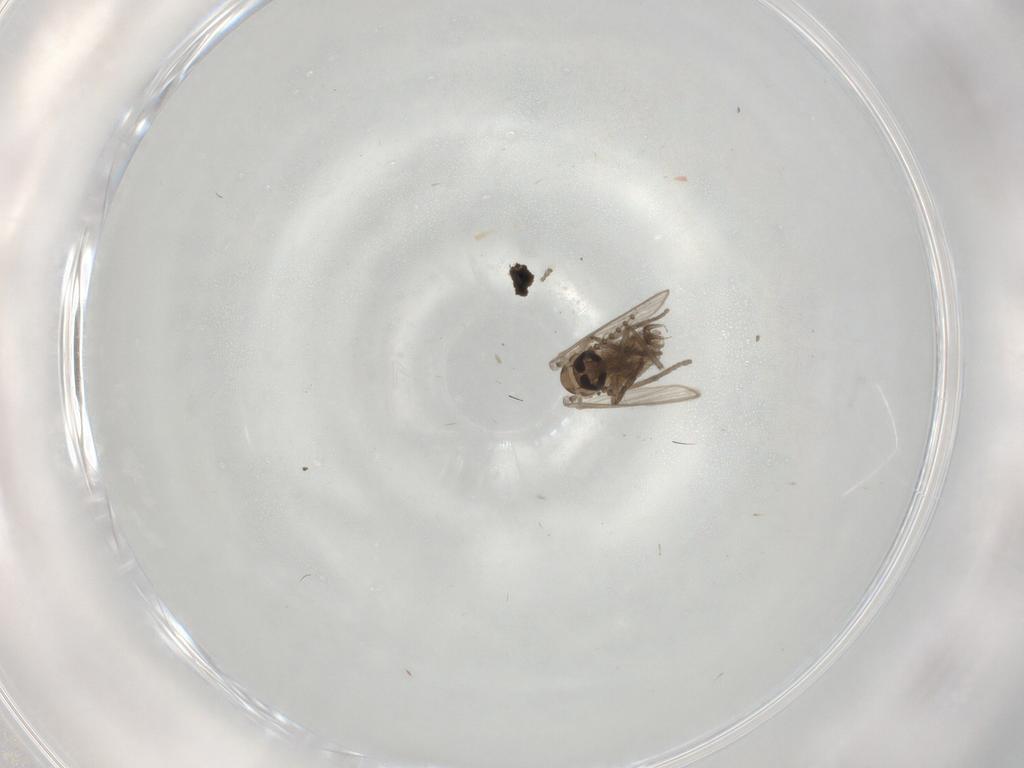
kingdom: Animalia
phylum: Arthropoda
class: Insecta
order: Diptera
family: Psychodidae
